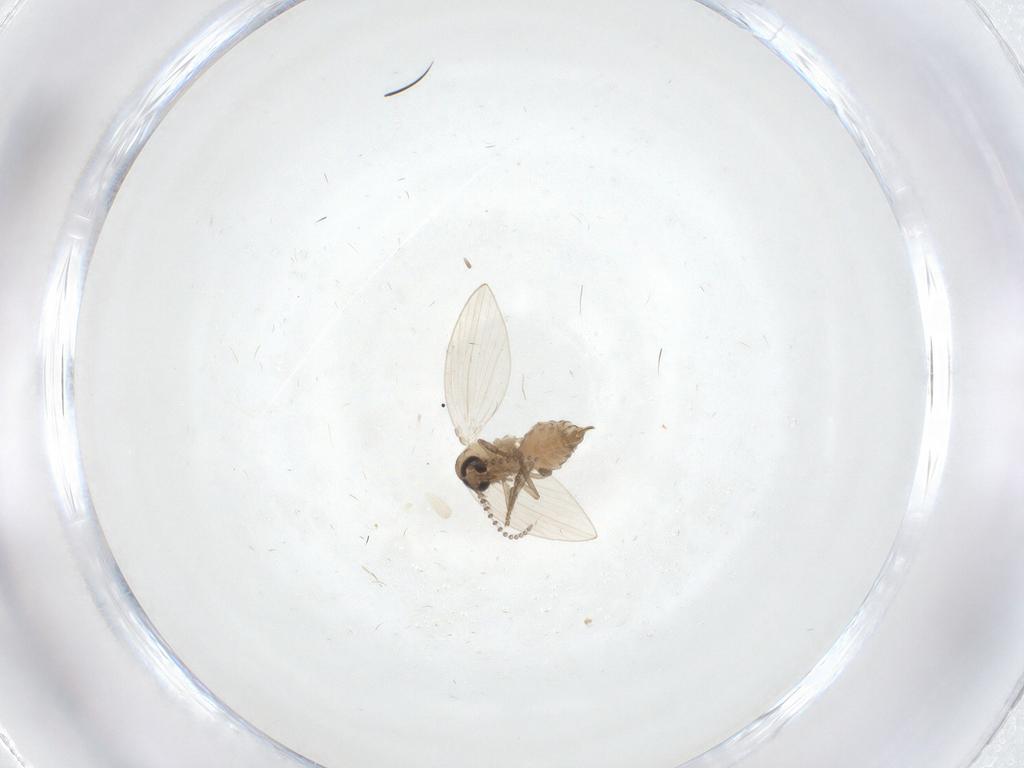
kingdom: Animalia
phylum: Arthropoda
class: Insecta
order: Diptera
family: Psychodidae
